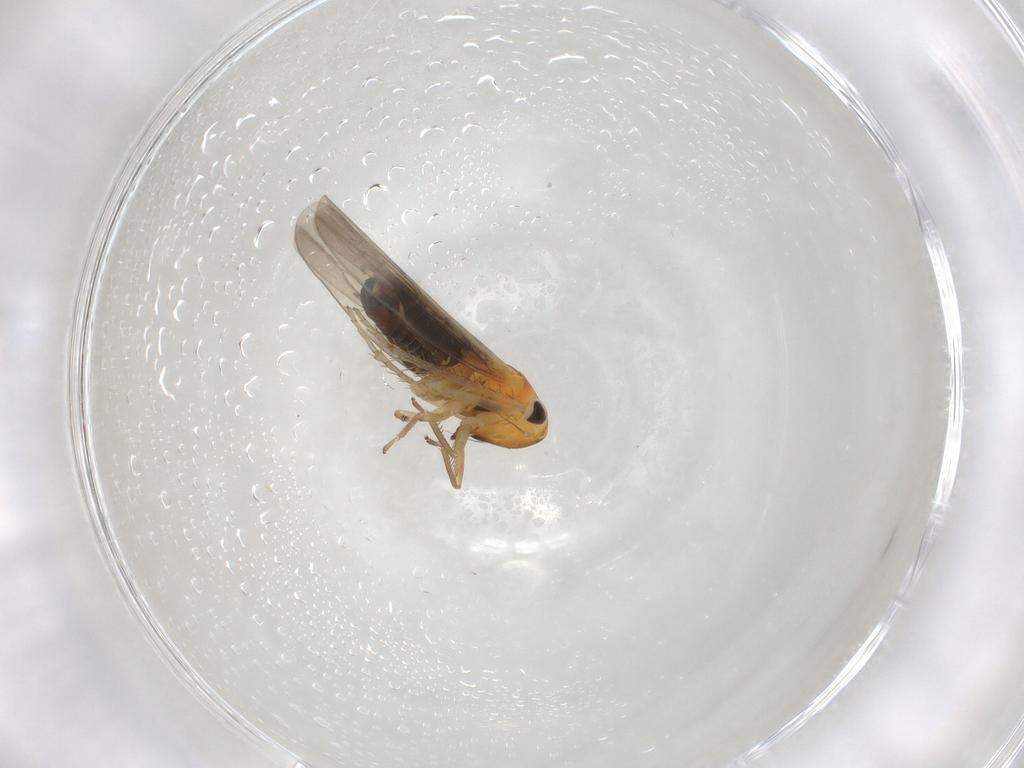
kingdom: Animalia
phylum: Arthropoda
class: Insecta
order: Hemiptera
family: Cicadellidae
